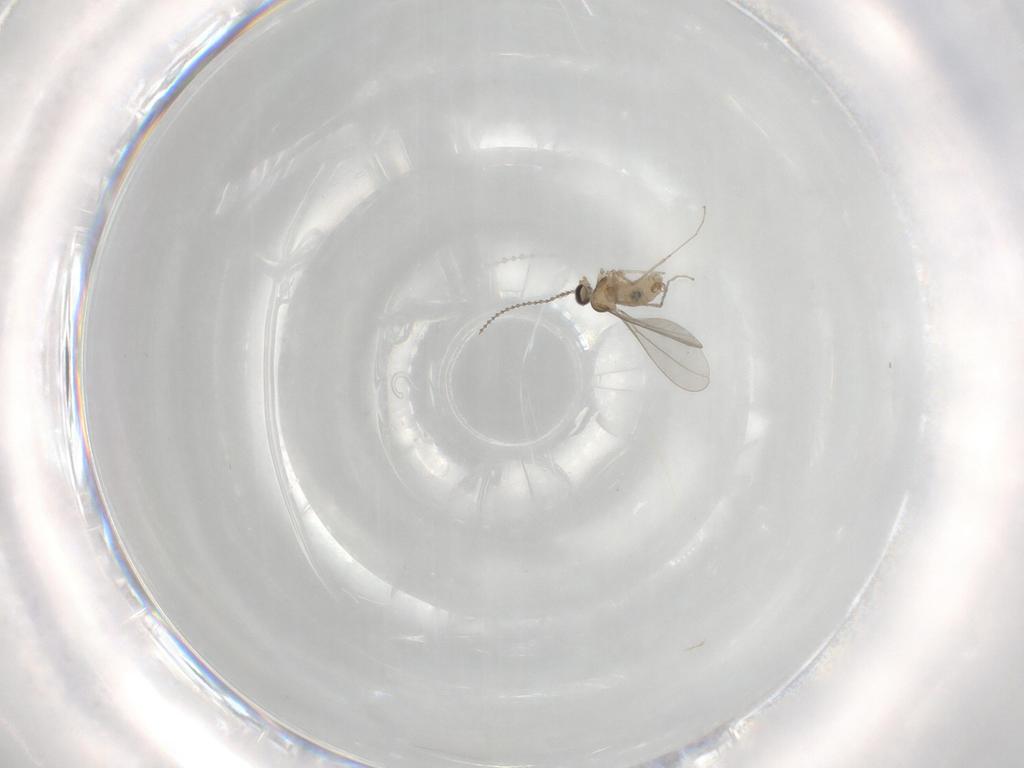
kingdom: Animalia
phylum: Arthropoda
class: Insecta
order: Diptera
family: Cecidomyiidae
